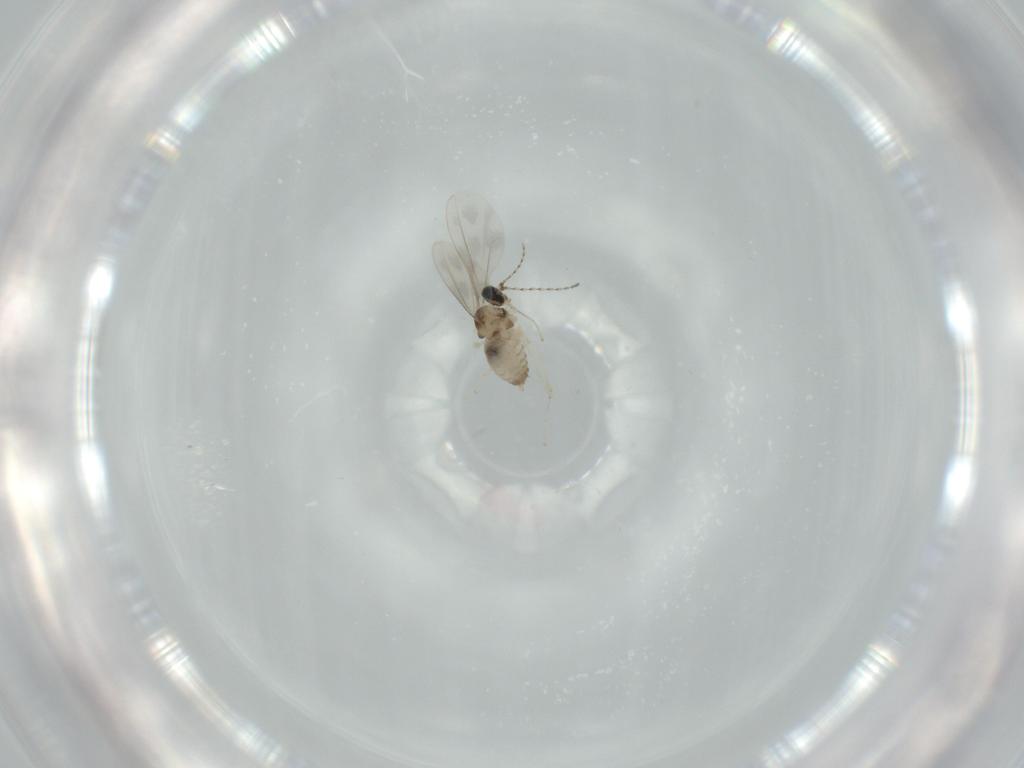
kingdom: Animalia
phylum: Arthropoda
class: Insecta
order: Diptera
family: Cecidomyiidae
